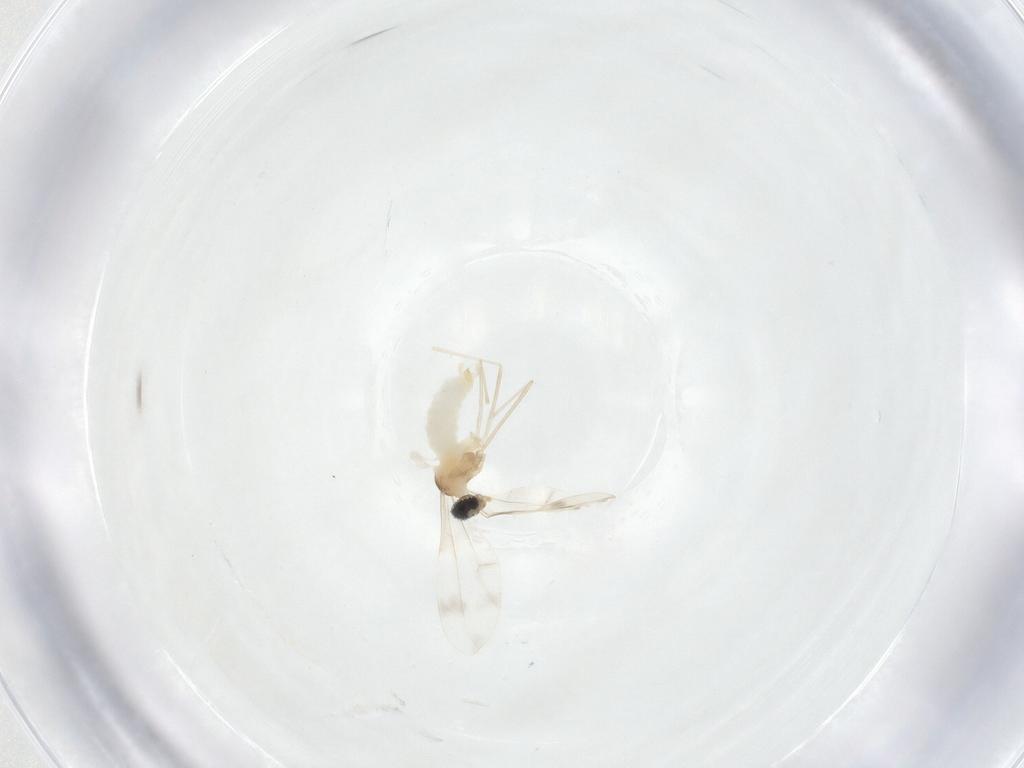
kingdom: Animalia
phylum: Arthropoda
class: Insecta
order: Diptera
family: Cecidomyiidae
